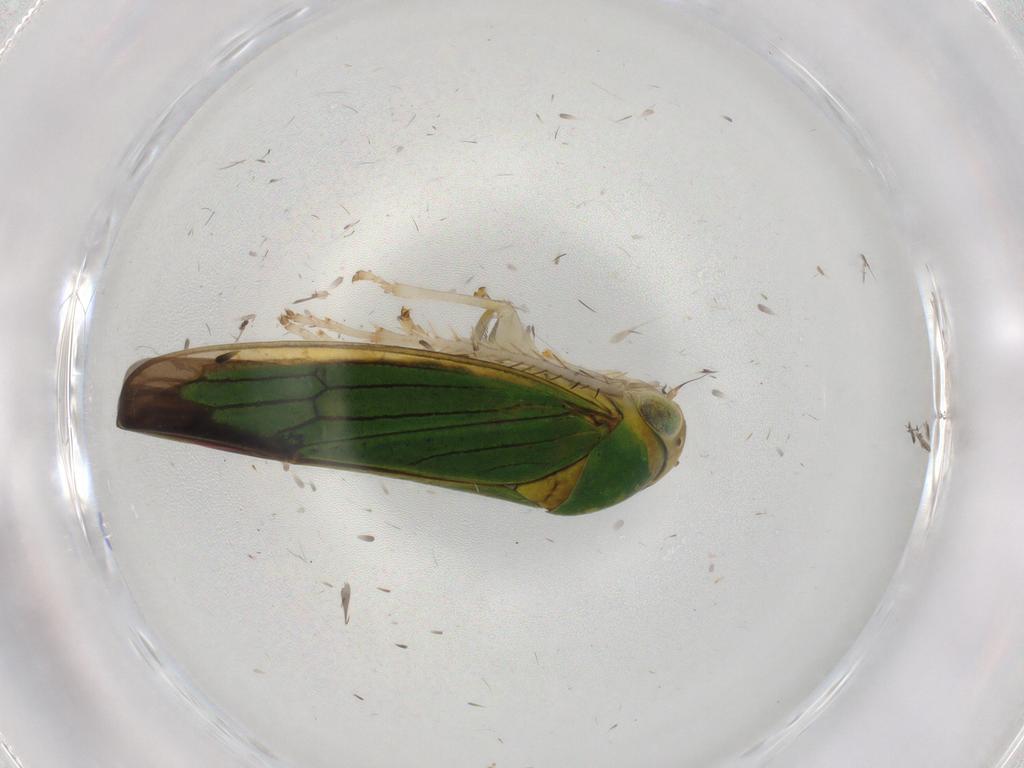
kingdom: Animalia
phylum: Arthropoda
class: Insecta
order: Hemiptera
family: Cicadellidae
